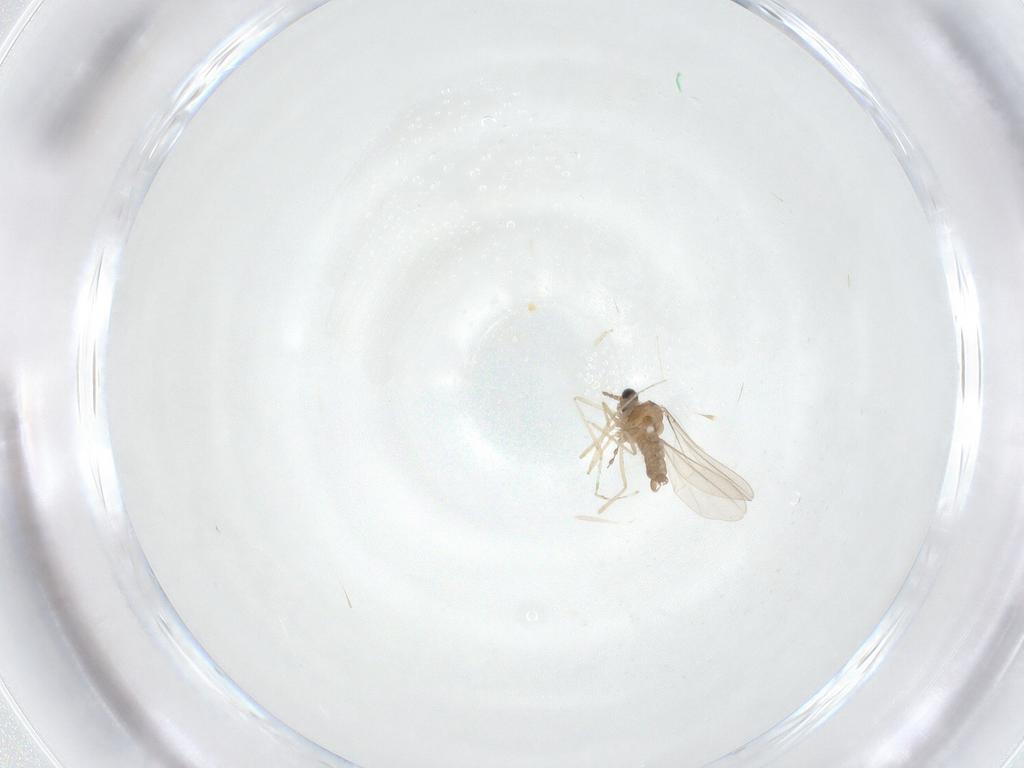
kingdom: Animalia
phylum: Arthropoda
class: Insecta
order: Diptera
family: Cecidomyiidae
